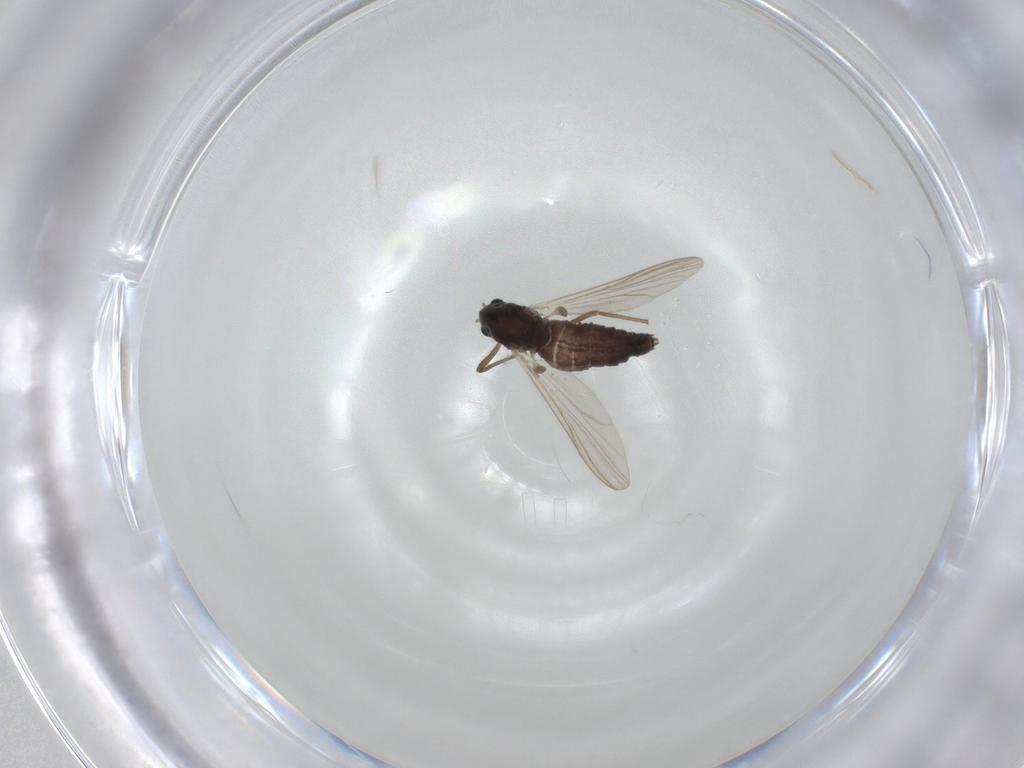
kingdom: Animalia
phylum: Arthropoda
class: Insecta
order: Diptera
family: Chironomidae
